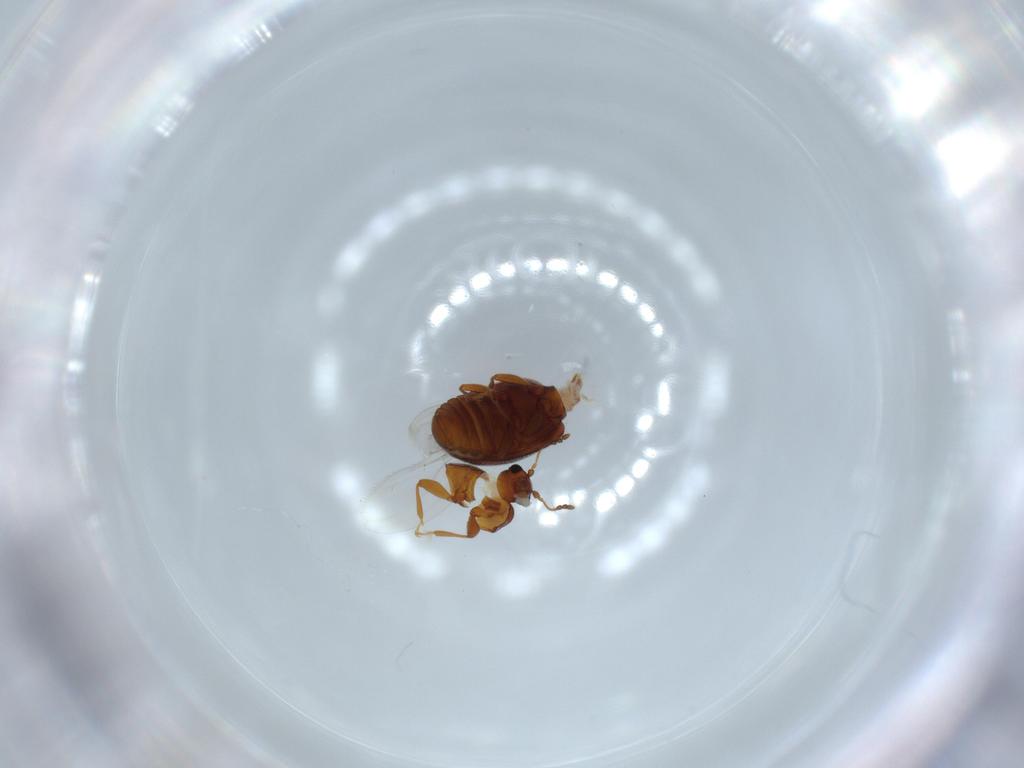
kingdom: Animalia
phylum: Arthropoda
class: Insecta
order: Coleoptera
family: Latridiidae
